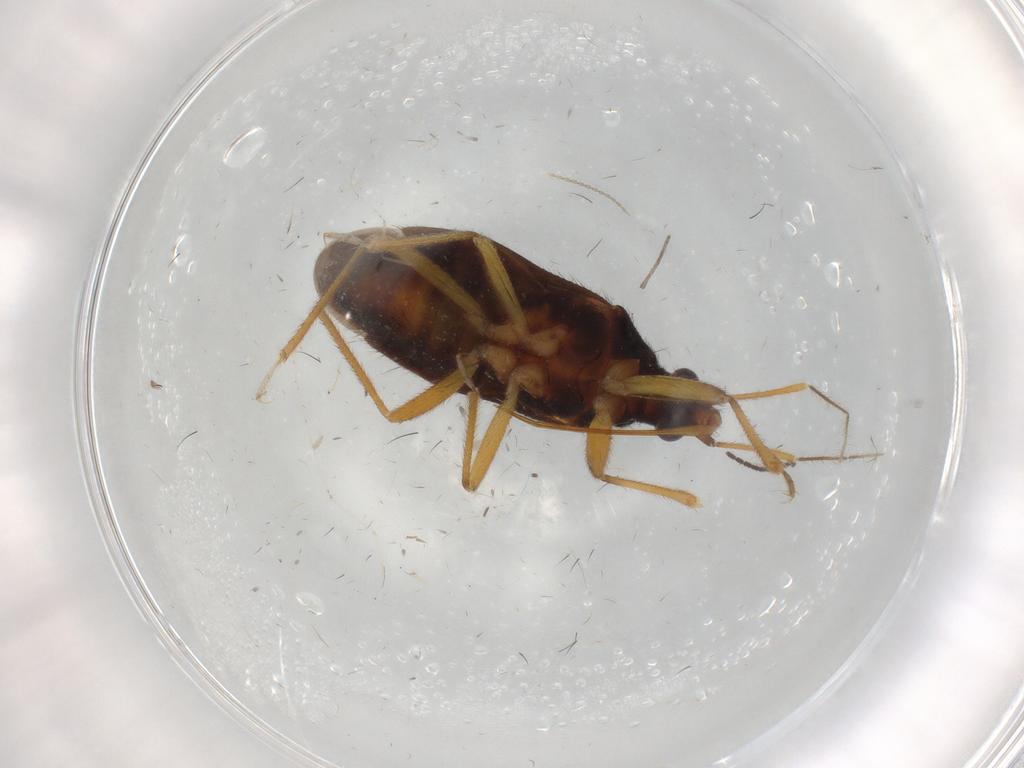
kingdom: Animalia
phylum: Arthropoda
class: Insecta
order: Hemiptera
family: Anthocoridae
